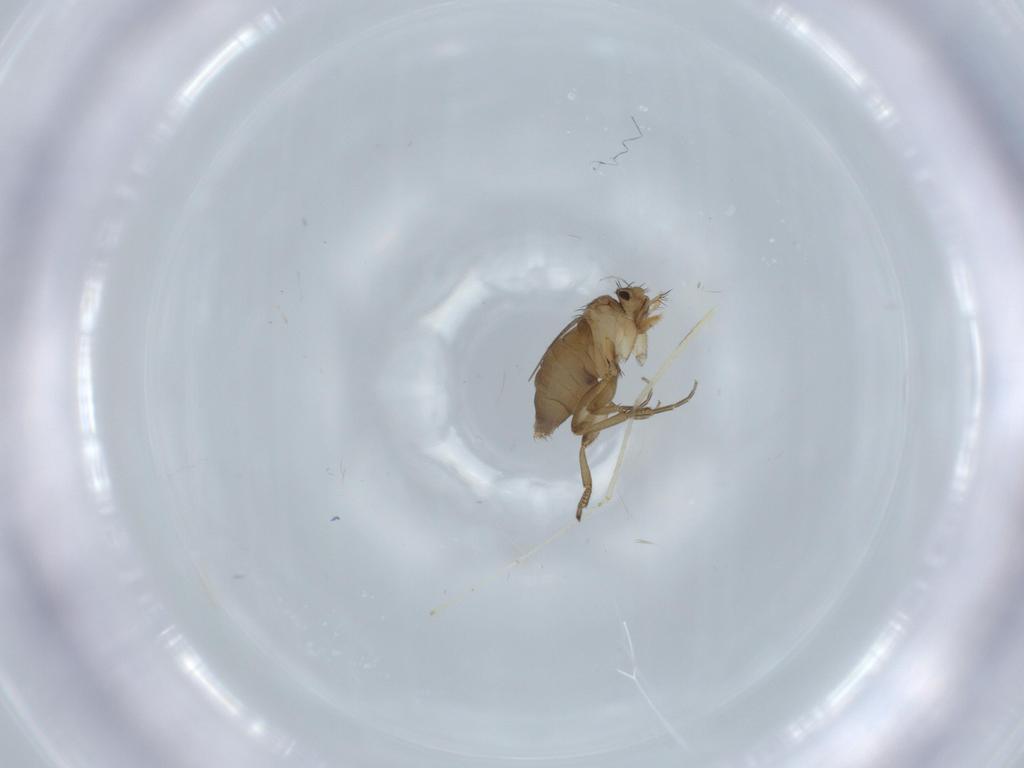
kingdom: Animalia
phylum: Arthropoda
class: Insecta
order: Diptera
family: Phoridae
